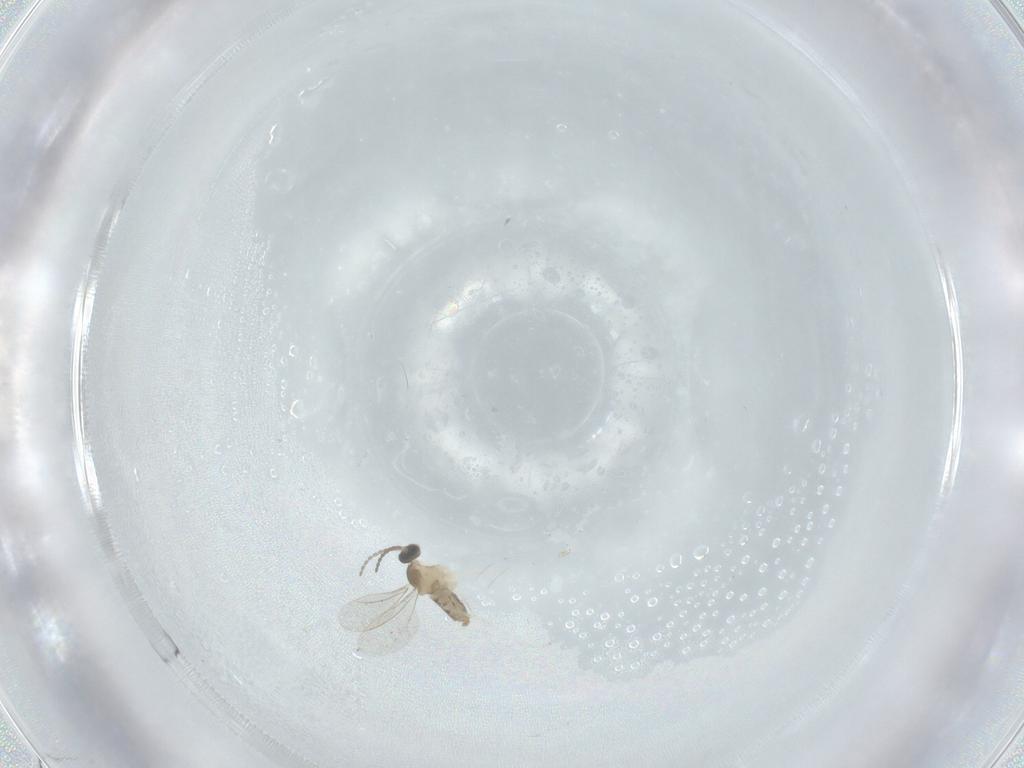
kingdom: Animalia
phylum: Arthropoda
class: Insecta
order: Diptera
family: Cecidomyiidae
